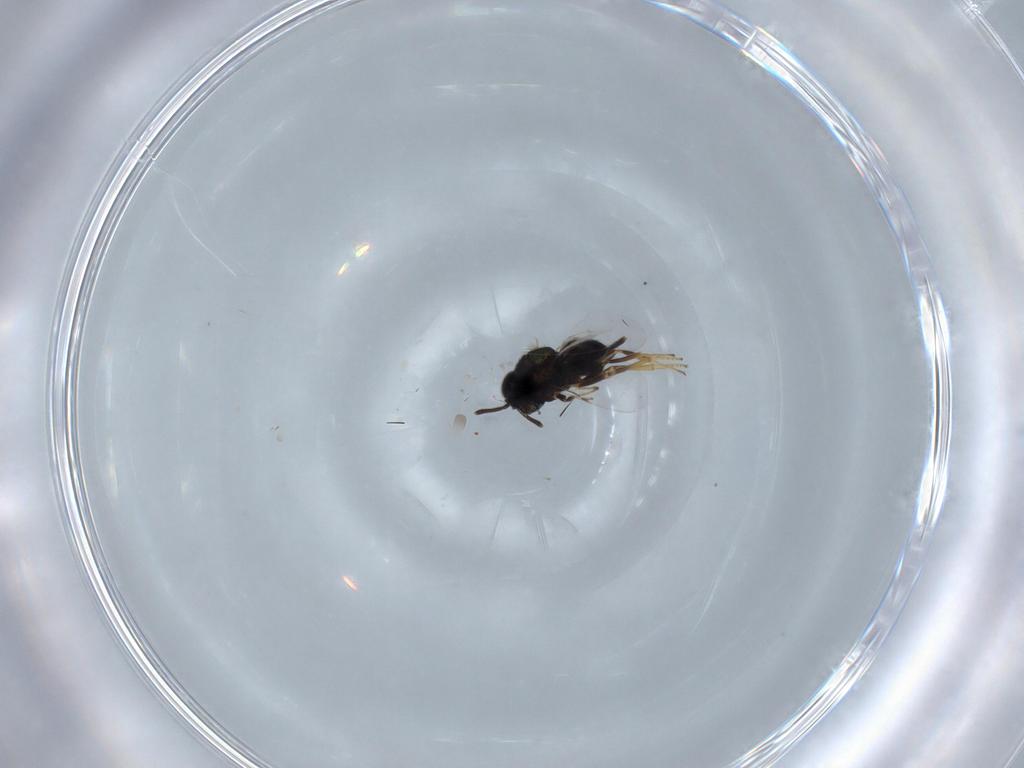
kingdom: Animalia
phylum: Arthropoda
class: Insecta
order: Hymenoptera
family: Encyrtidae
